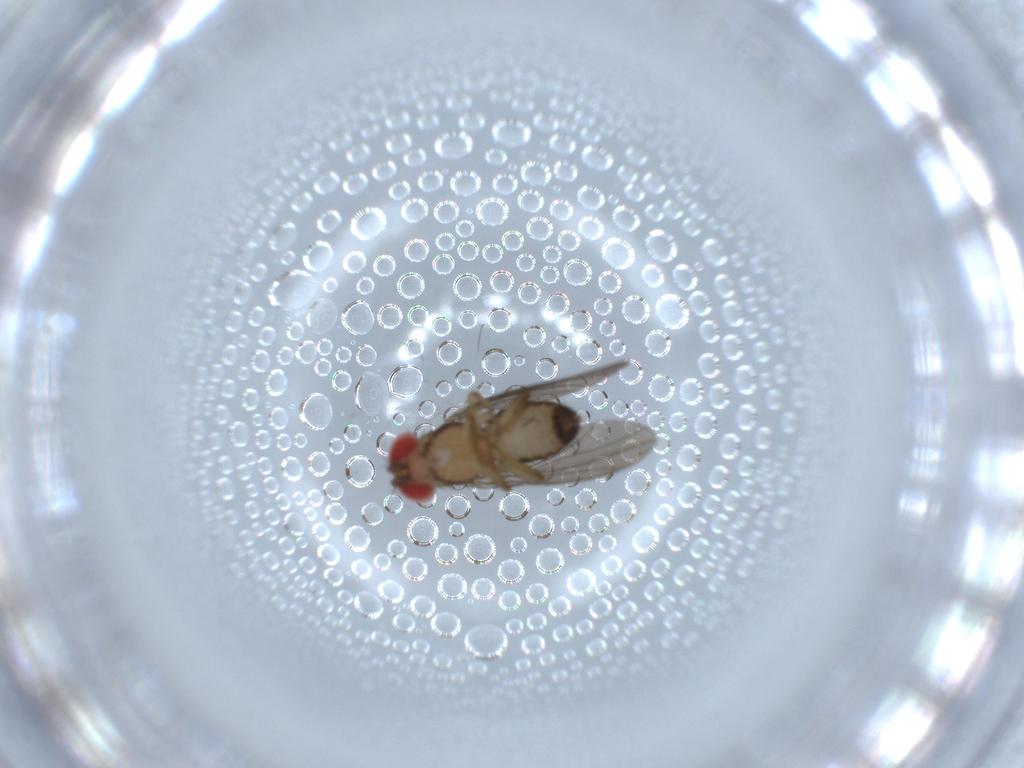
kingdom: Animalia
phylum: Arthropoda
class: Insecta
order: Diptera
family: Drosophilidae
